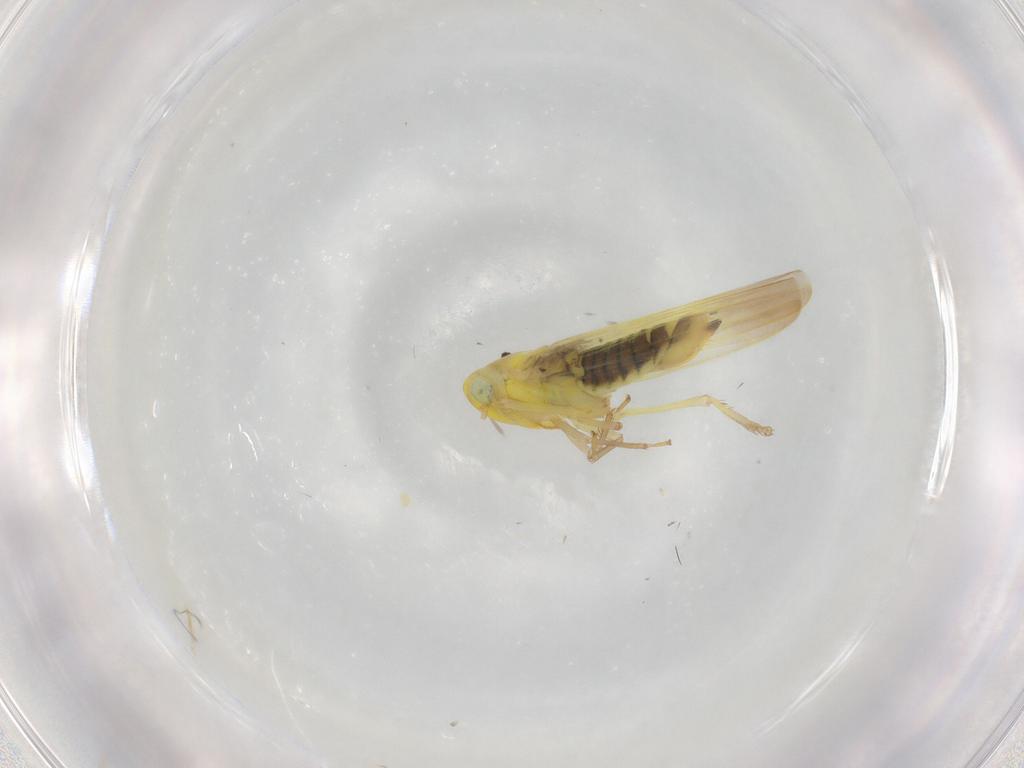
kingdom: Animalia
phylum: Arthropoda
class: Insecta
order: Hemiptera
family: Cicadellidae
